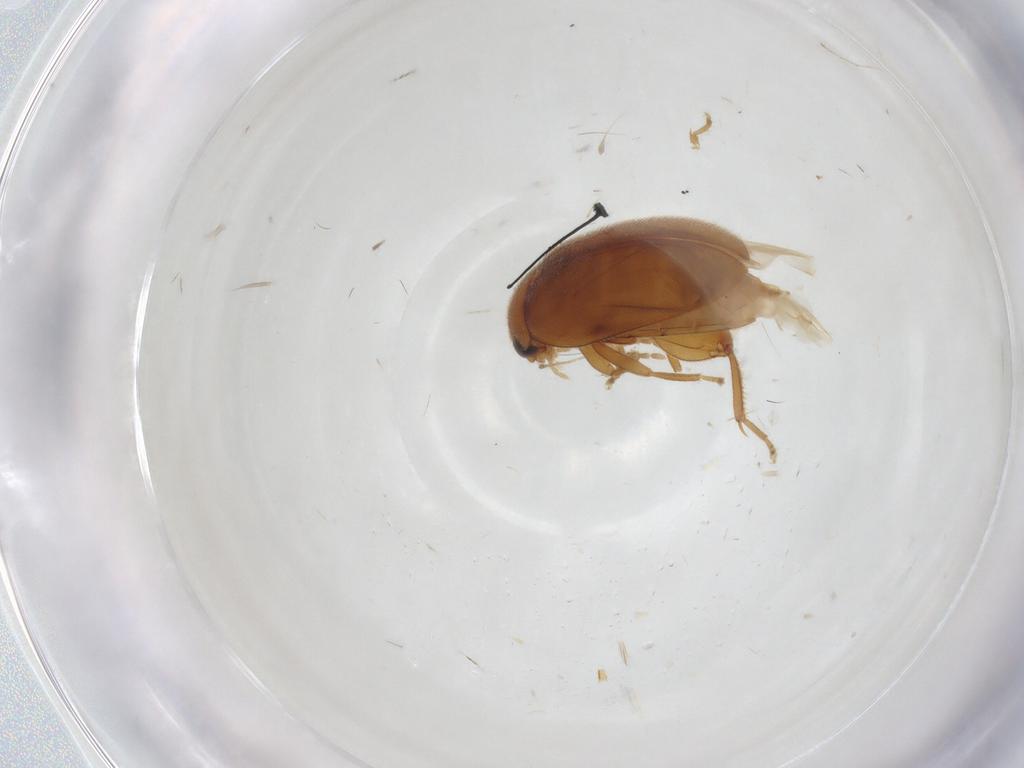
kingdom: Animalia
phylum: Arthropoda
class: Insecta
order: Coleoptera
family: Scirtidae
